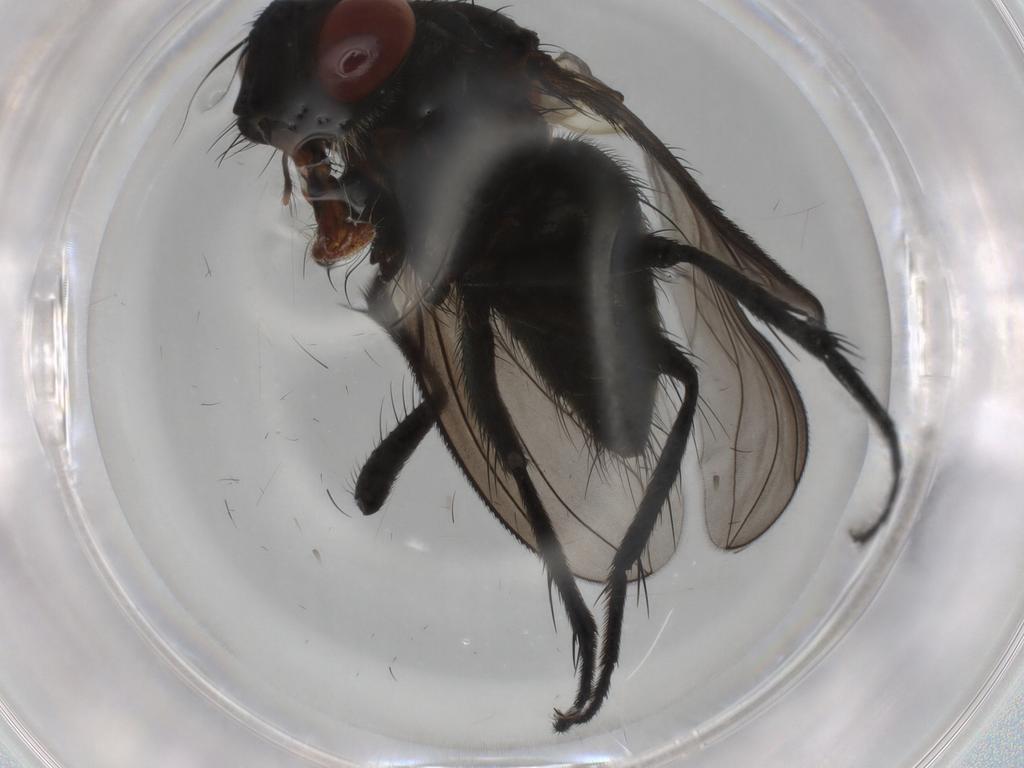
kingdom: Animalia
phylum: Arthropoda
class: Insecta
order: Diptera
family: Tachinidae
